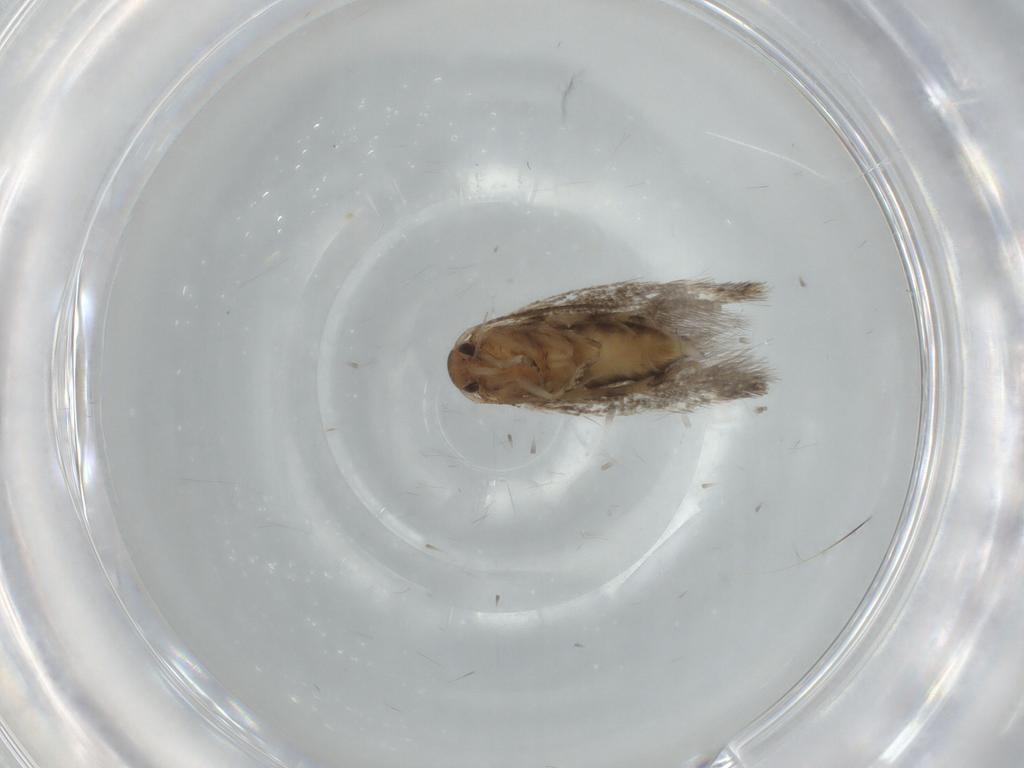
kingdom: Animalia
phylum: Arthropoda
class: Insecta
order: Lepidoptera
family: Elachistidae
